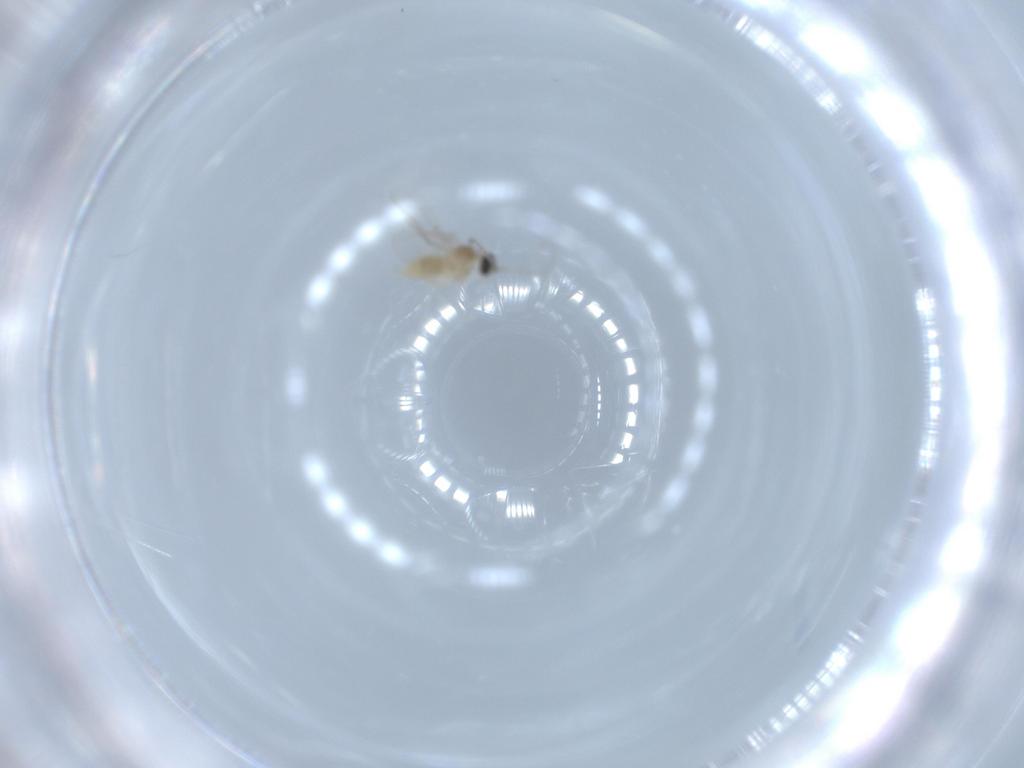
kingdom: Animalia
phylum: Arthropoda
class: Insecta
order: Diptera
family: Cecidomyiidae
